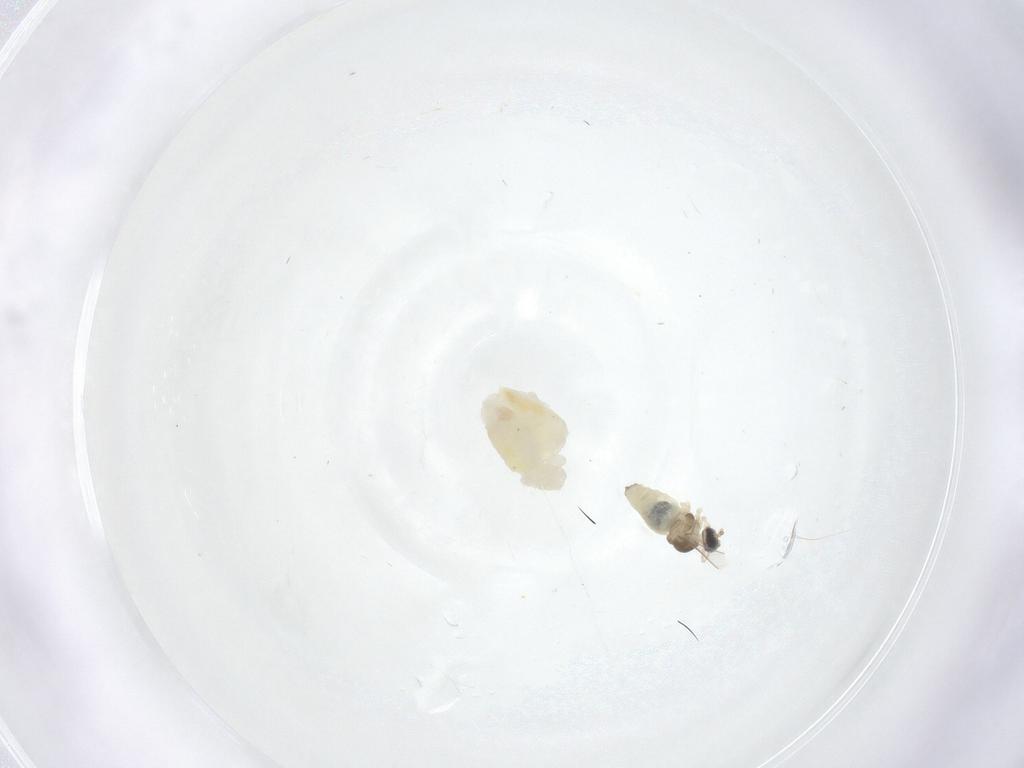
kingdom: Animalia
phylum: Arthropoda
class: Insecta
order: Diptera
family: Cecidomyiidae
